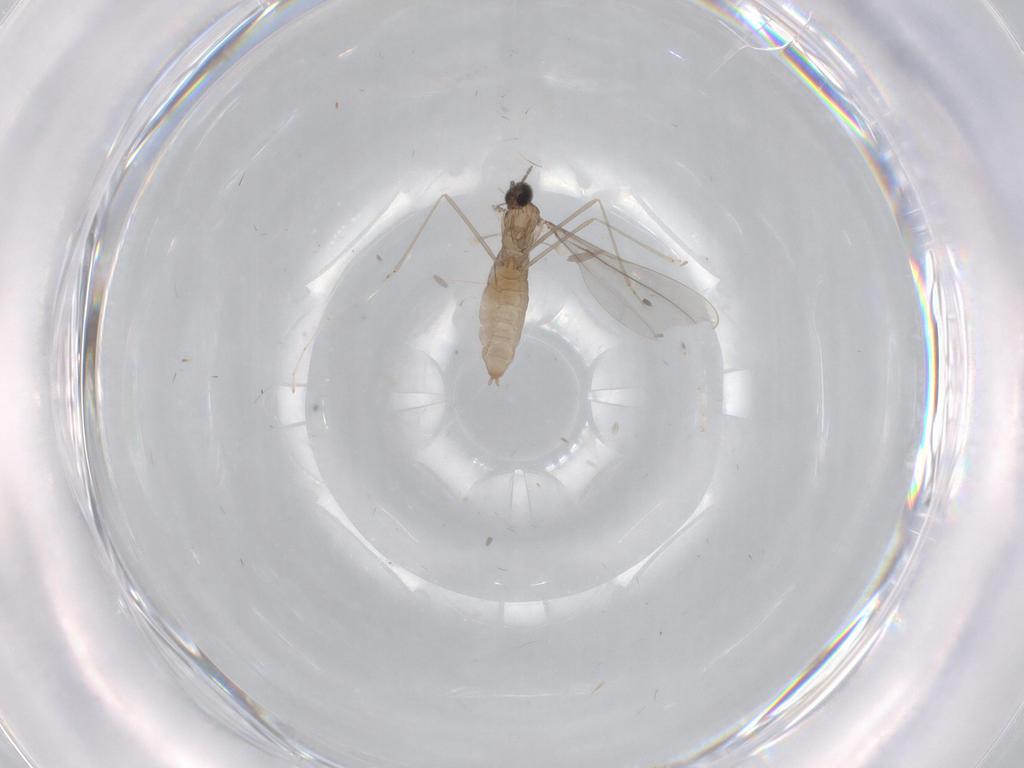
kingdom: Animalia
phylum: Arthropoda
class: Insecta
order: Diptera
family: Cecidomyiidae
